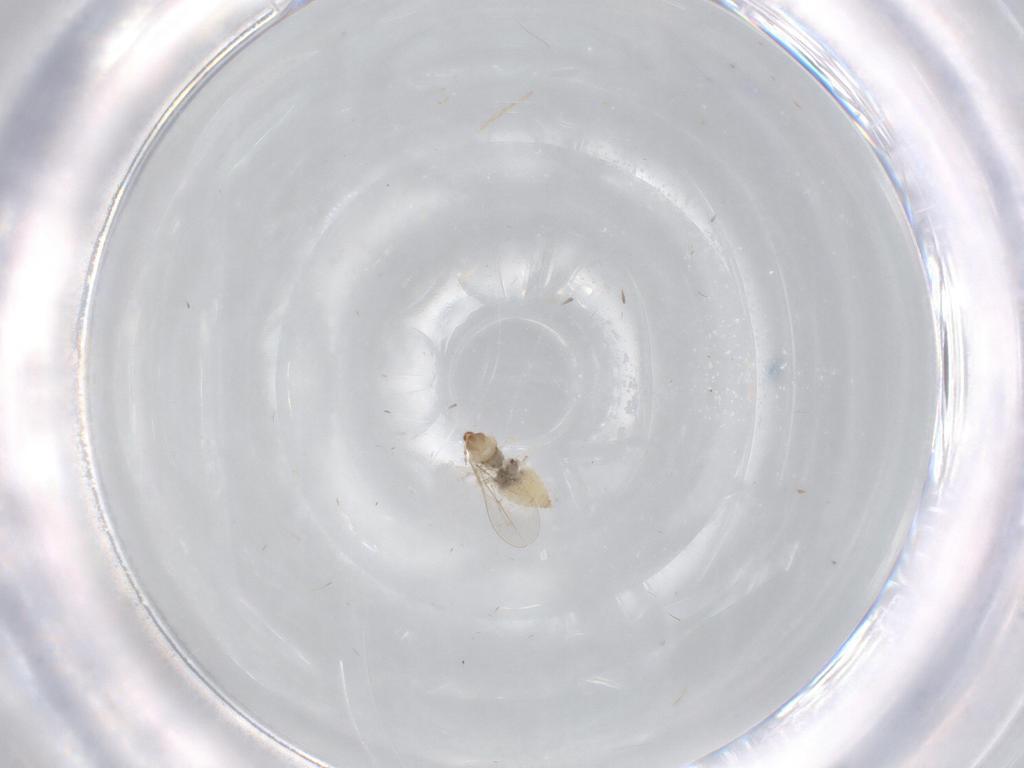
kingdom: Animalia
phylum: Arthropoda
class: Insecta
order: Diptera
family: Cecidomyiidae
